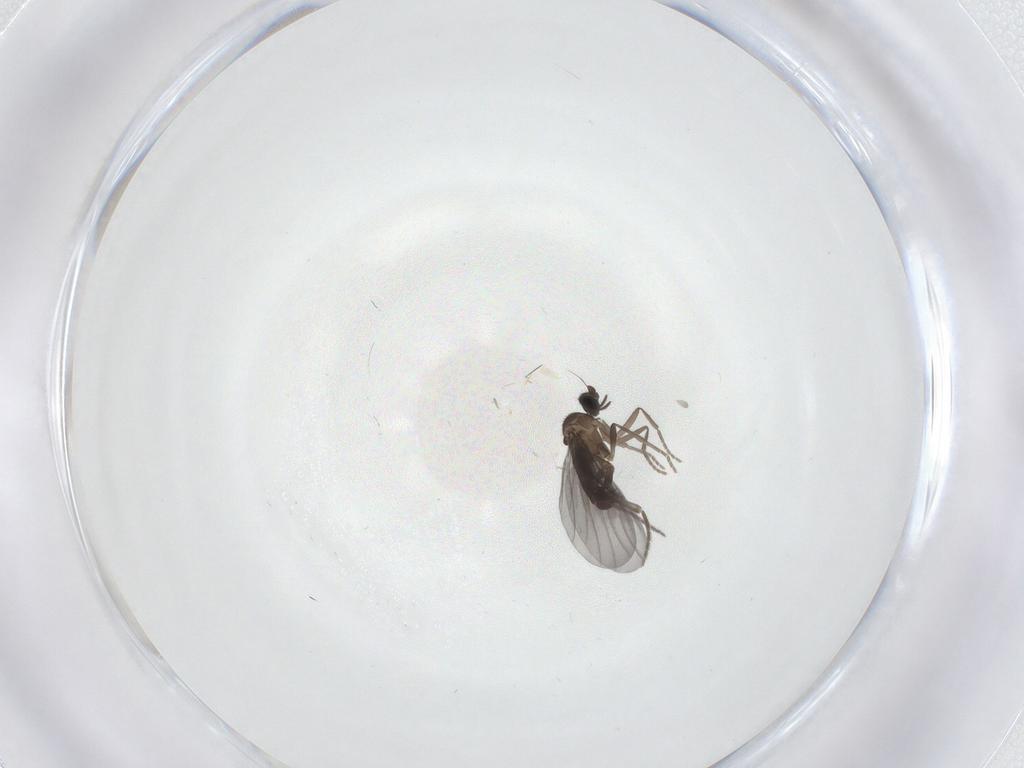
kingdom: Animalia
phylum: Arthropoda
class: Insecta
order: Diptera
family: Phoridae
